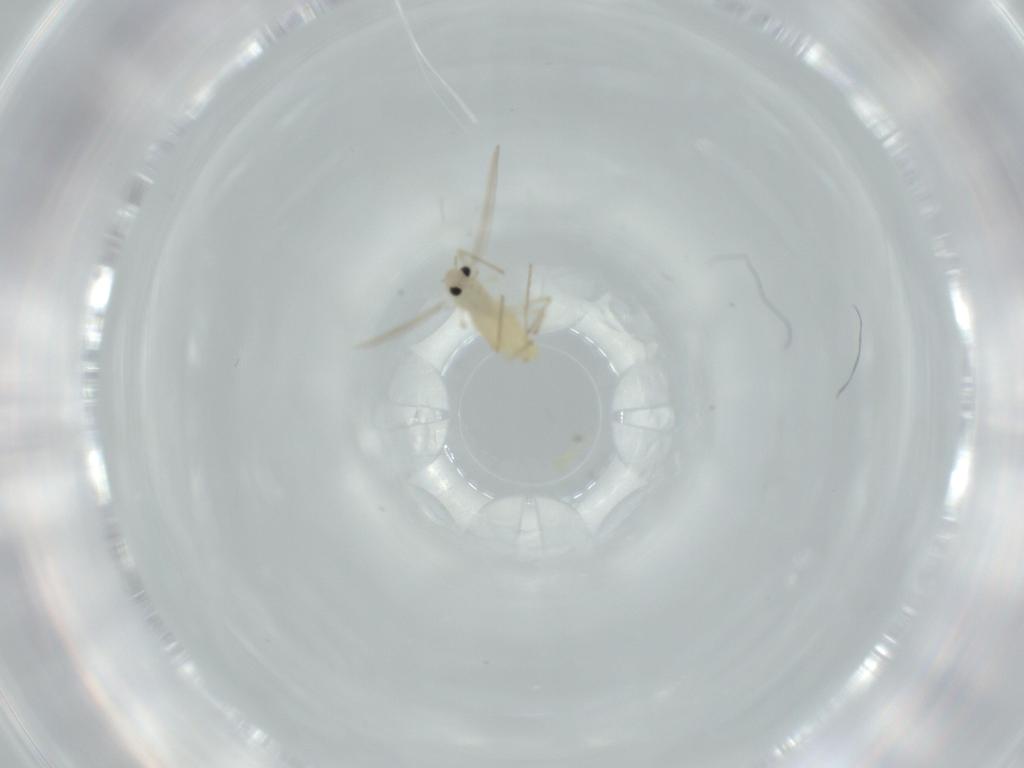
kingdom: Animalia
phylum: Arthropoda
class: Insecta
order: Diptera
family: Chironomidae
